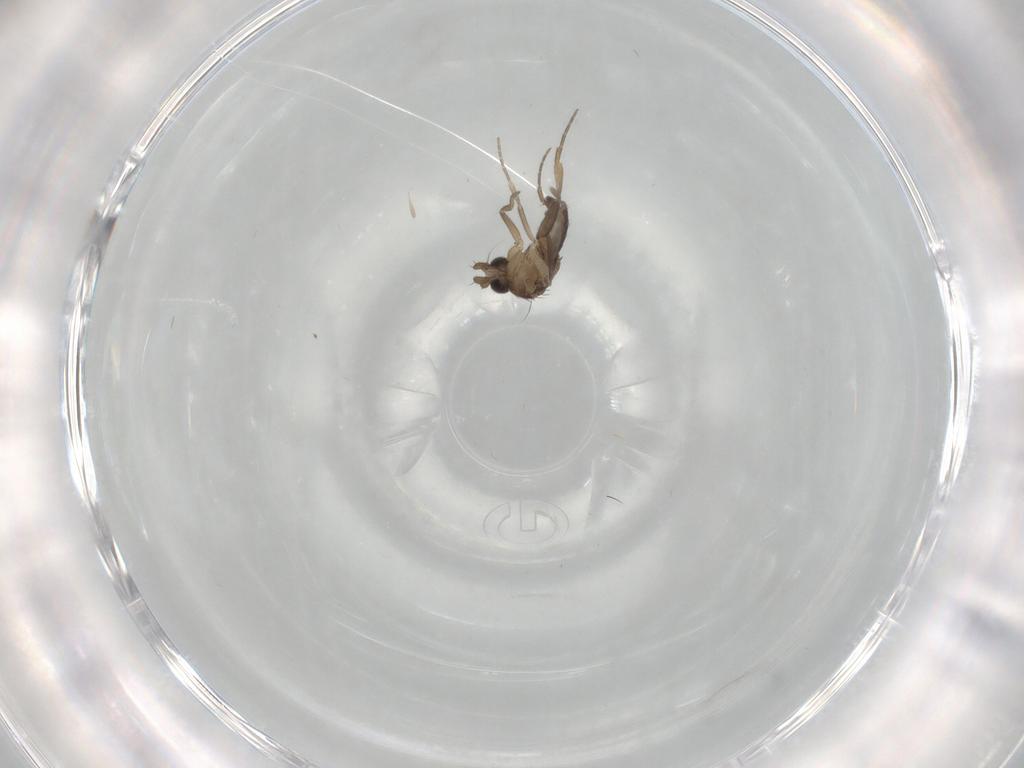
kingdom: Animalia
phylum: Arthropoda
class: Insecta
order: Diptera
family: Phoridae
